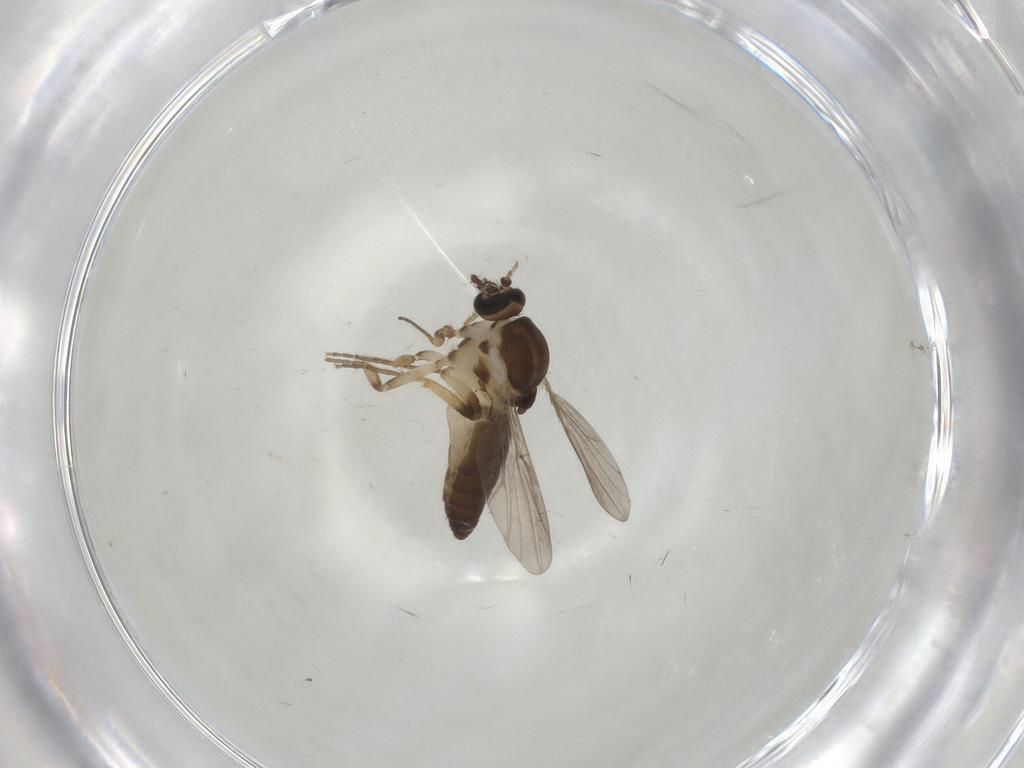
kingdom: Animalia
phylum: Arthropoda
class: Insecta
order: Diptera
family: Ceratopogonidae
